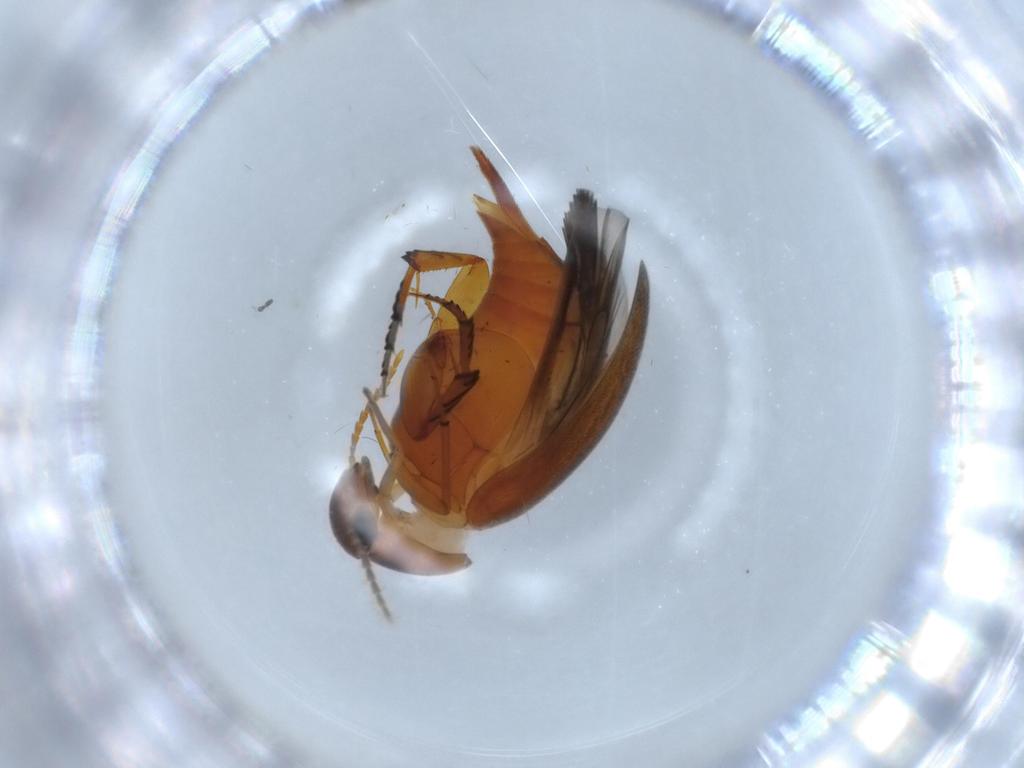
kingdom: Animalia
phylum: Arthropoda
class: Insecta
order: Coleoptera
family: Mordellidae
